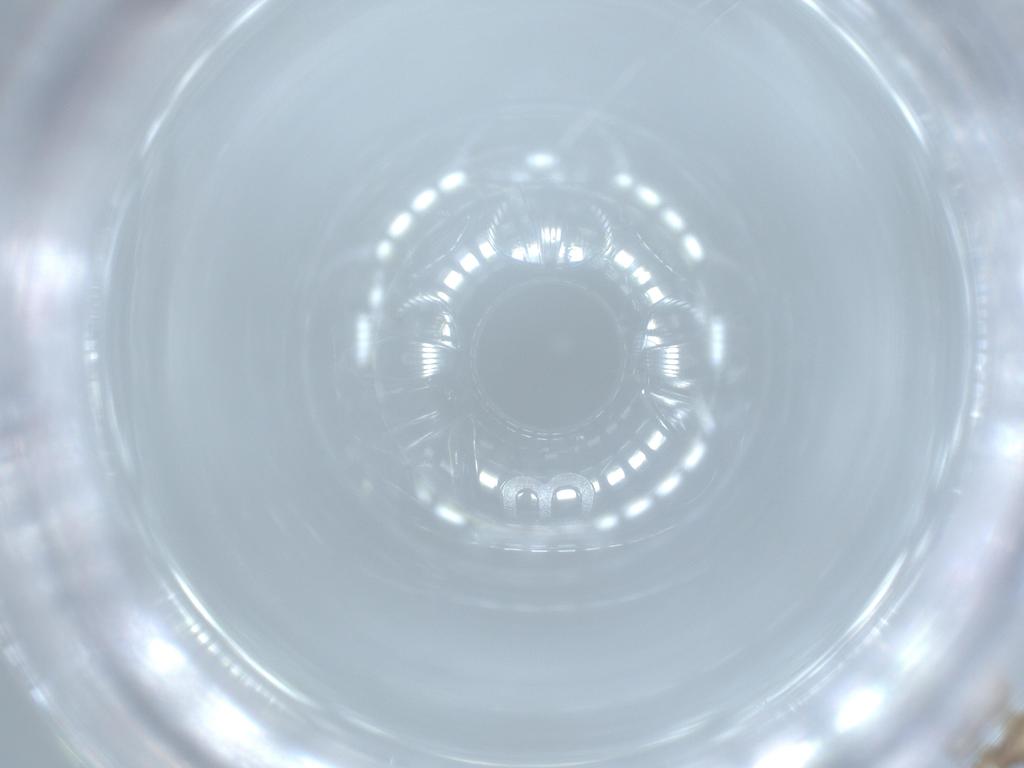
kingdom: Animalia
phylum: Arthropoda
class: Insecta
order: Psocodea
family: Liposcelididae
